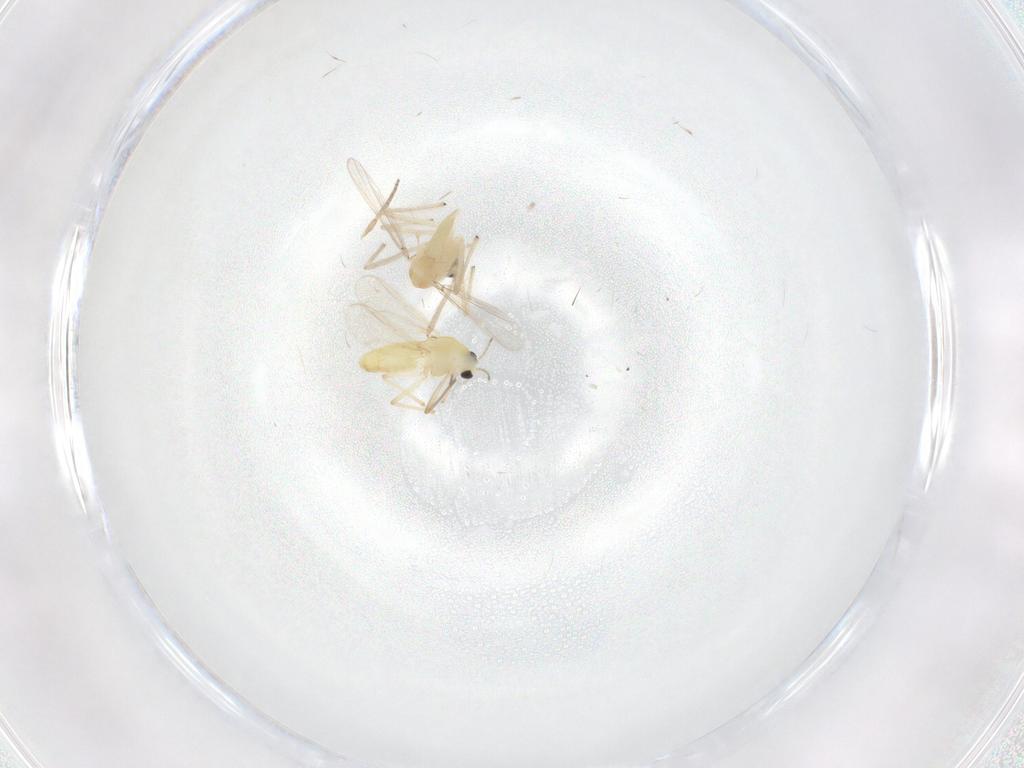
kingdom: Animalia
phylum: Arthropoda
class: Insecta
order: Diptera
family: Chironomidae
